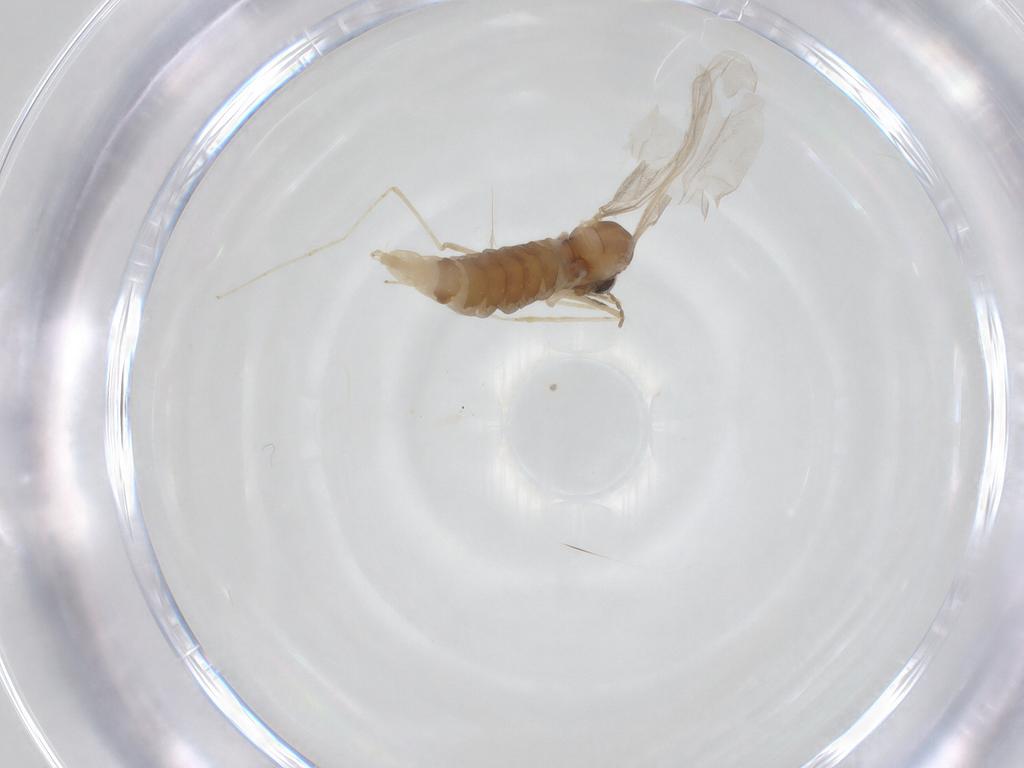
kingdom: Animalia
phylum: Arthropoda
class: Insecta
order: Diptera
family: Cecidomyiidae
